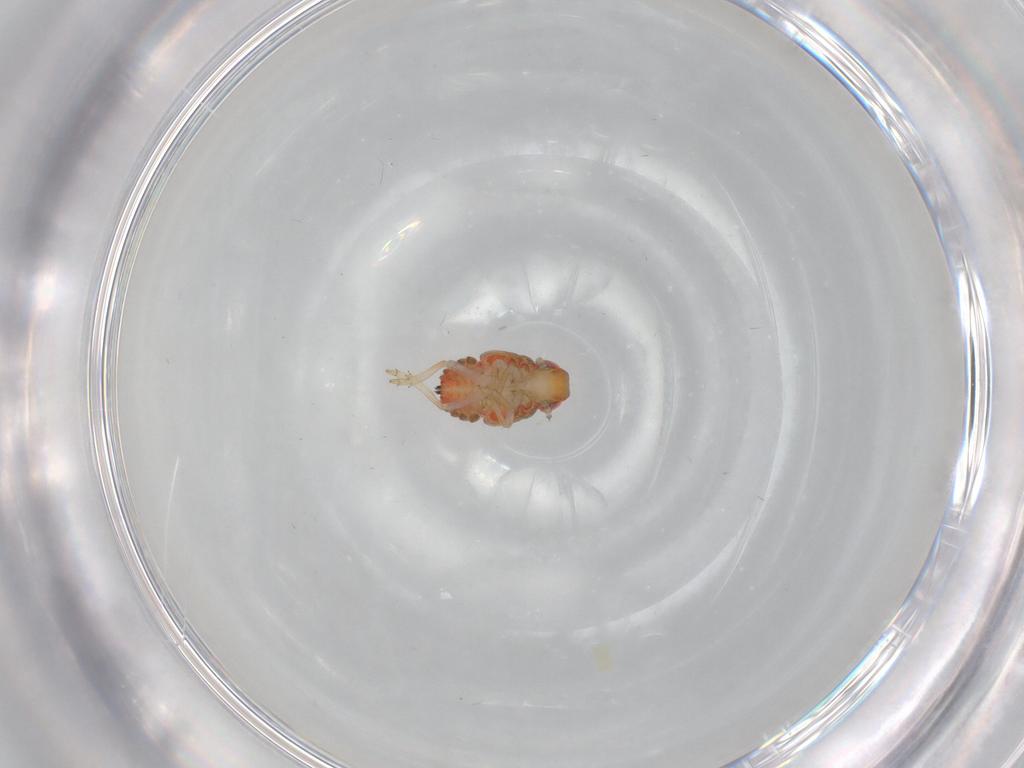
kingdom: Animalia
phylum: Arthropoda
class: Insecta
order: Hemiptera
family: Issidae
